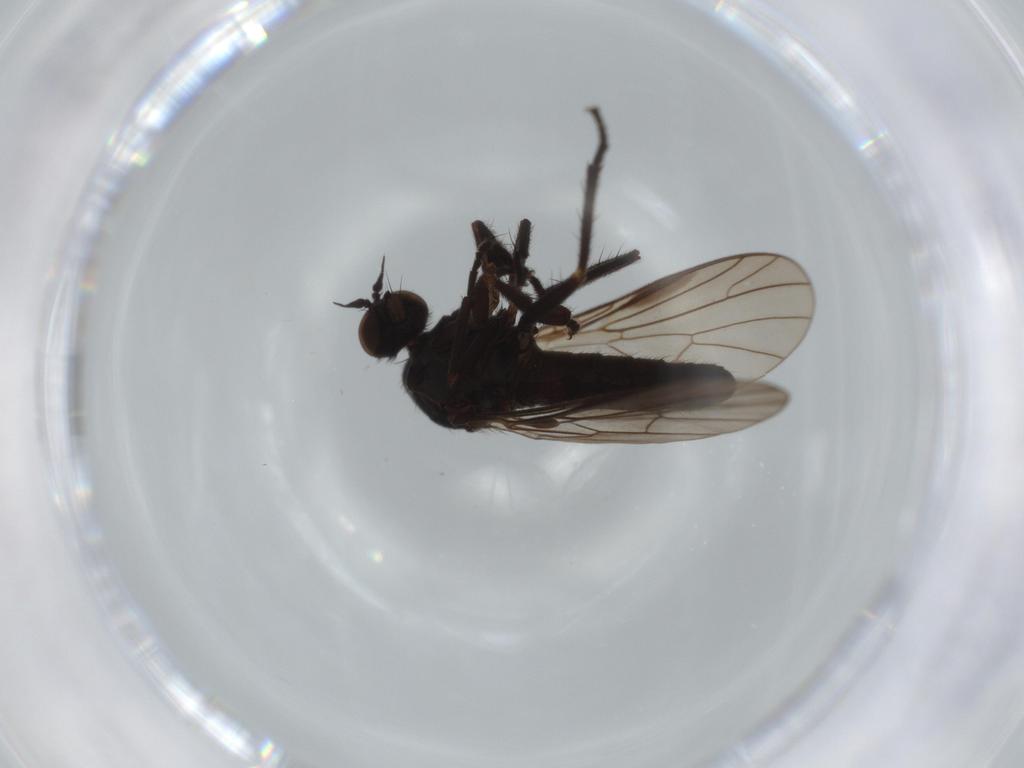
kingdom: Animalia
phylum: Arthropoda
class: Insecta
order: Diptera
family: Empididae
